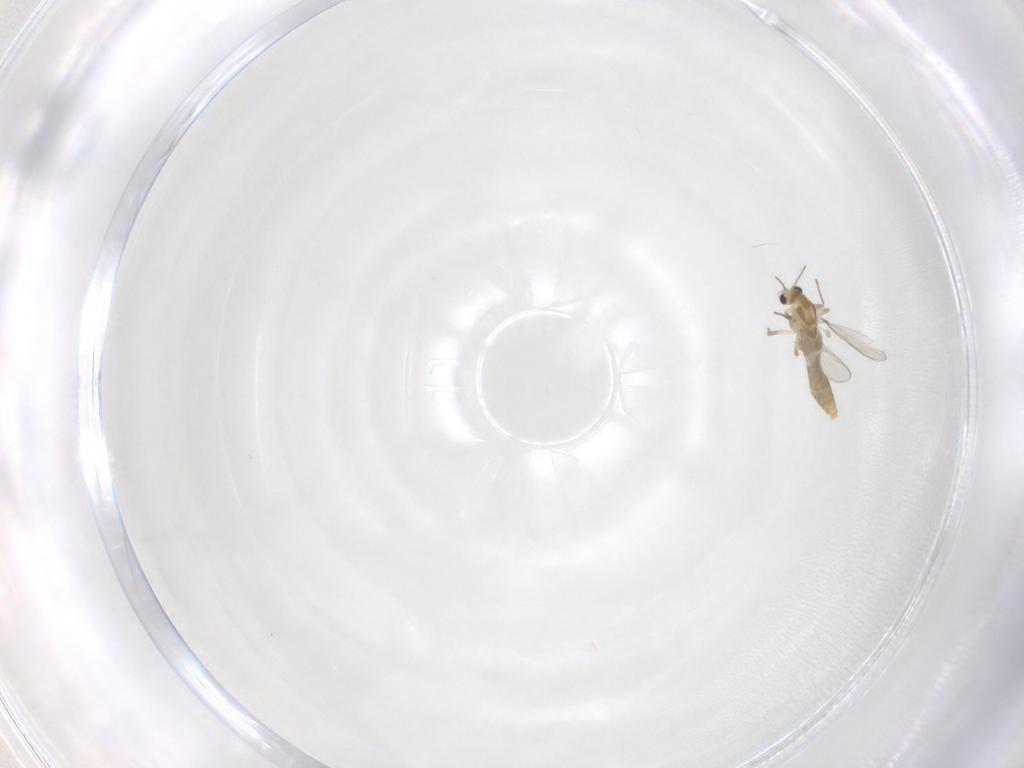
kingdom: Animalia
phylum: Arthropoda
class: Insecta
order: Diptera
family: Chironomidae
